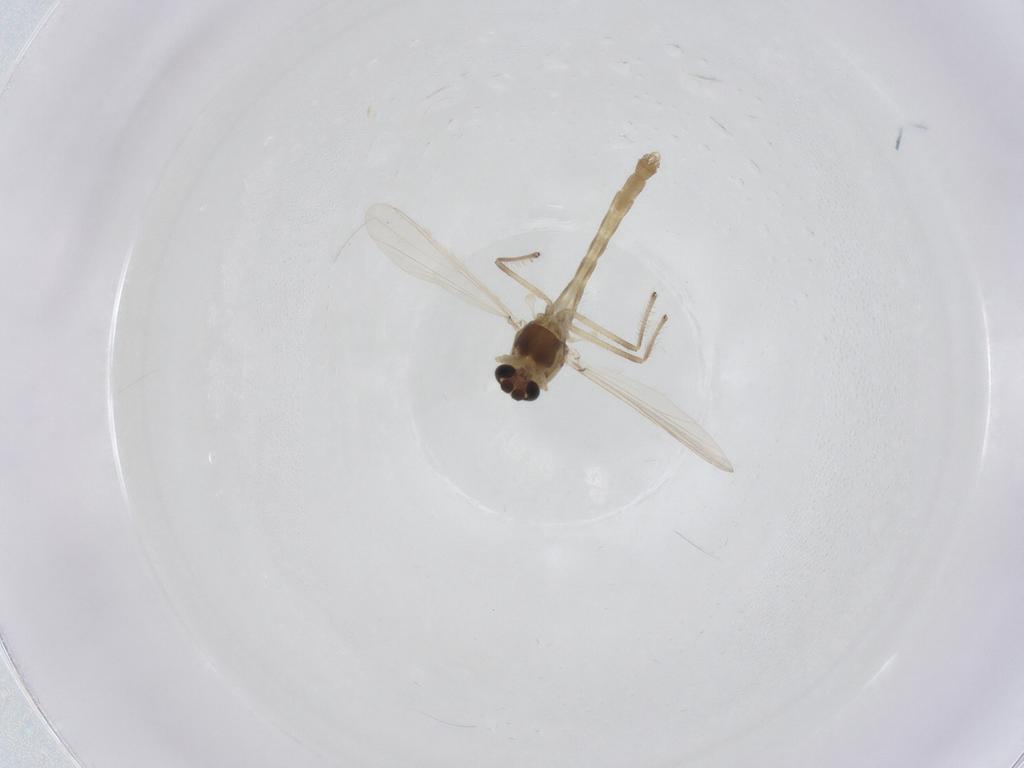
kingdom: Animalia
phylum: Arthropoda
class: Insecta
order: Diptera
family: Chironomidae
